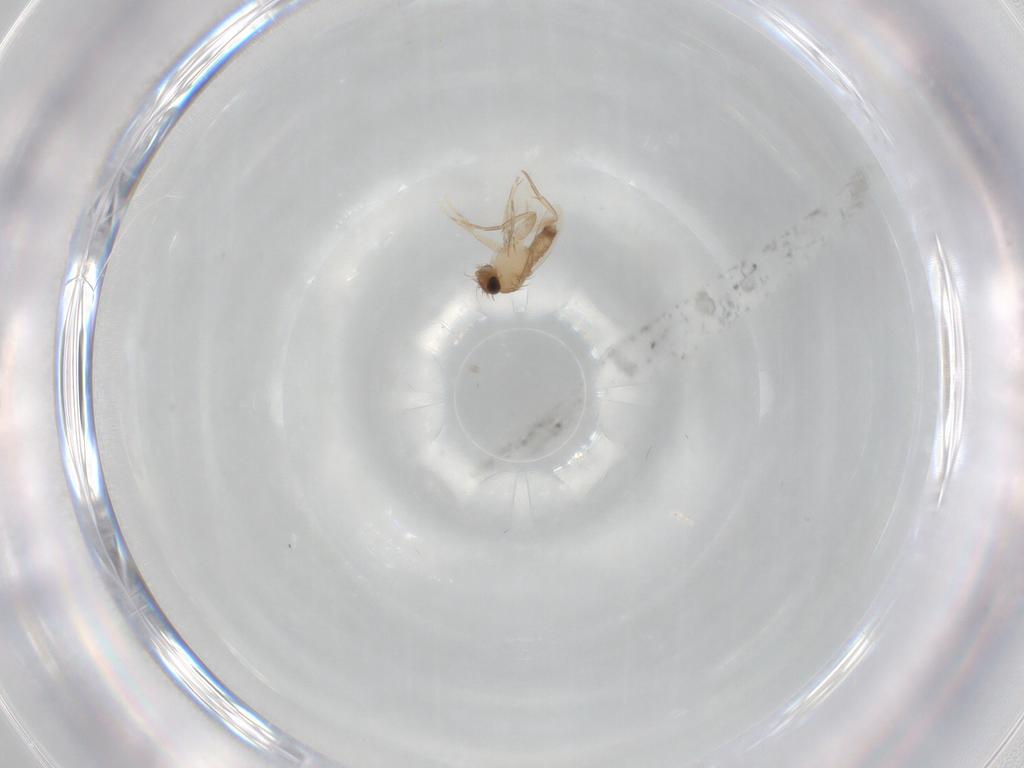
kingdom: Animalia
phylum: Arthropoda
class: Insecta
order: Diptera
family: Phoridae
